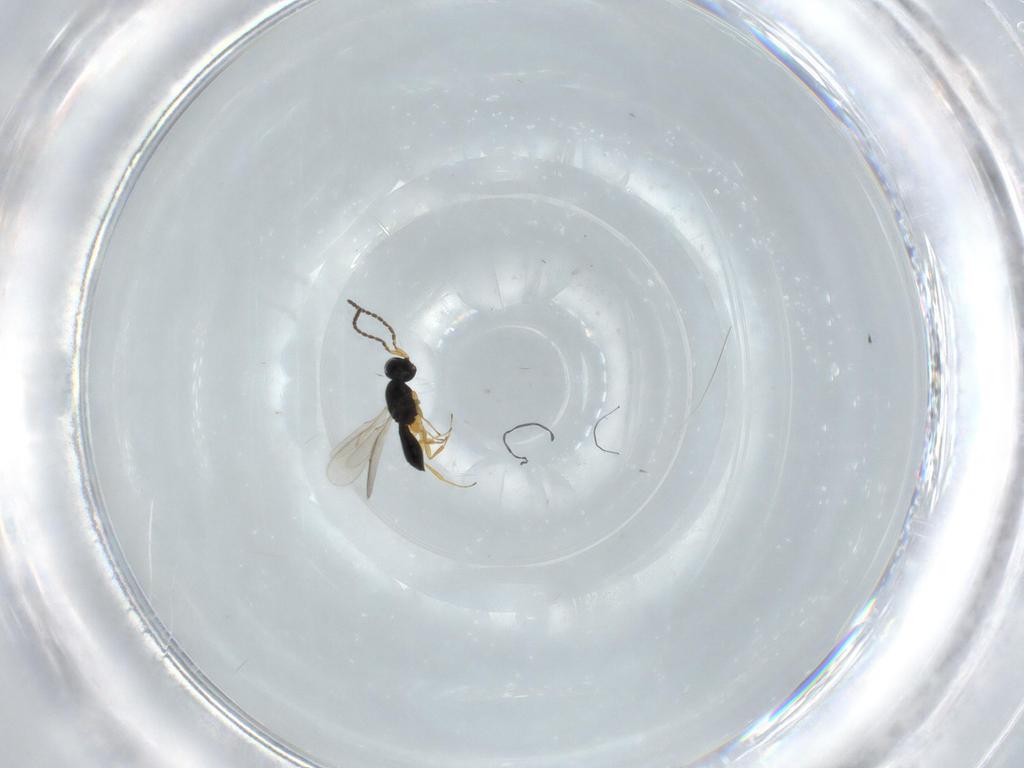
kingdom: Animalia
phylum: Arthropoda
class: Insecta
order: Hymenoptera
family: Scelionidae
